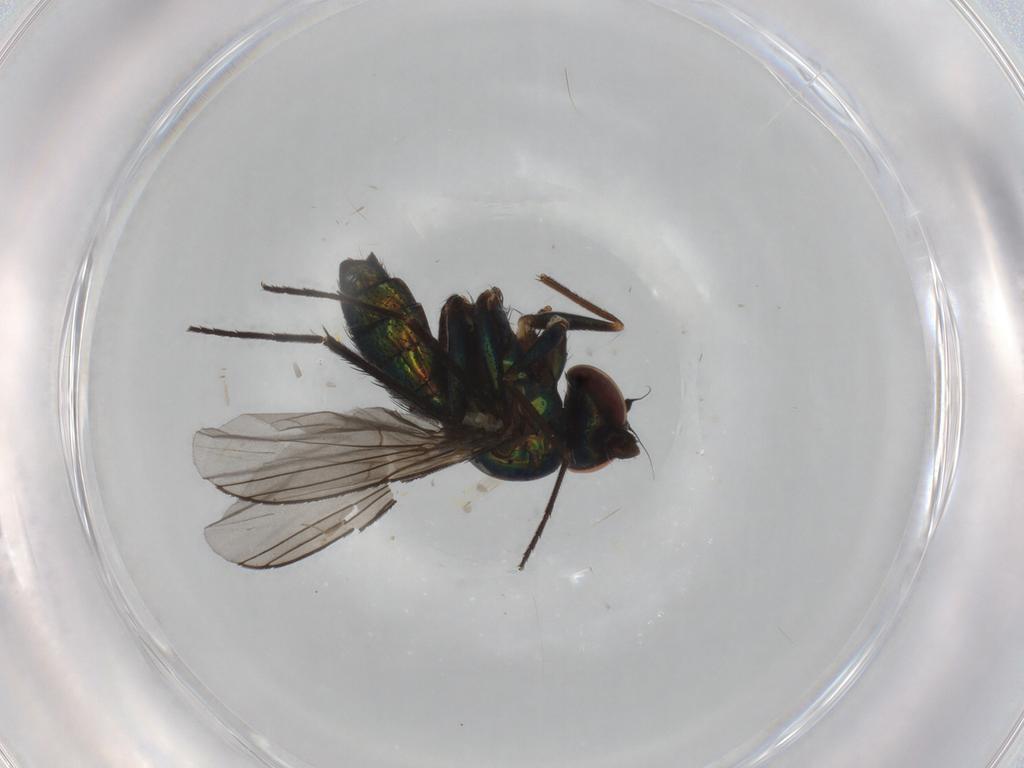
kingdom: Animalia
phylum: Arthropoda
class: Insecta
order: Diptera
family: Dolichopodidae
